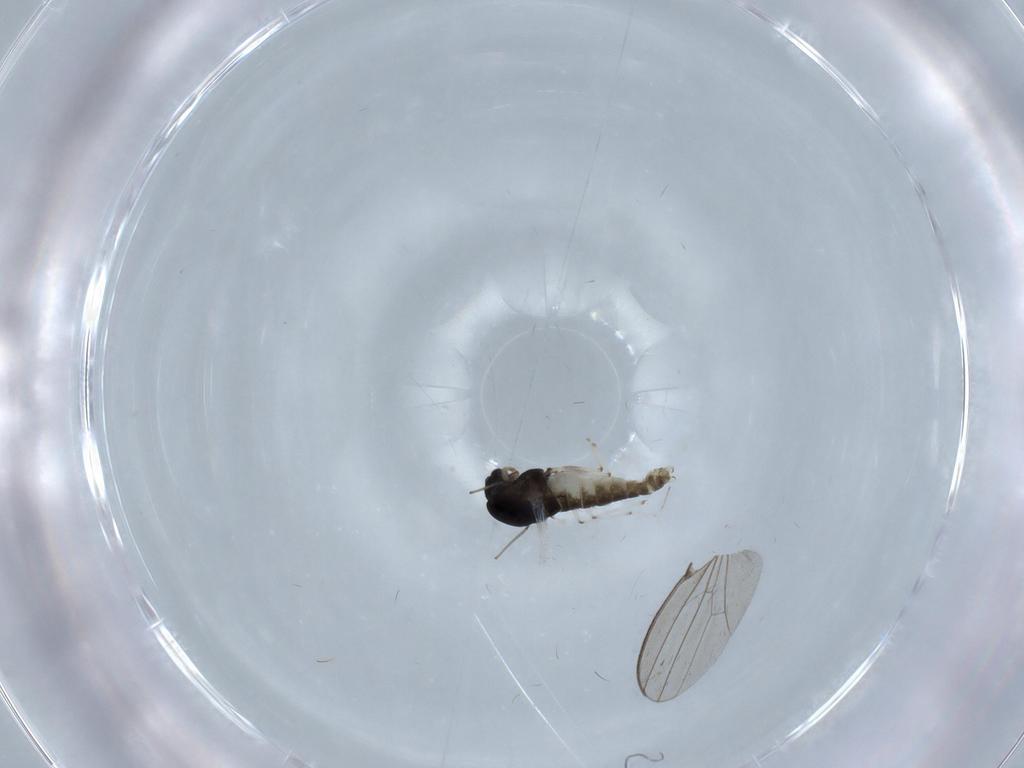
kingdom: Animalia
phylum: Arthropoda
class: Insecta
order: Diptera
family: Chironomidae
